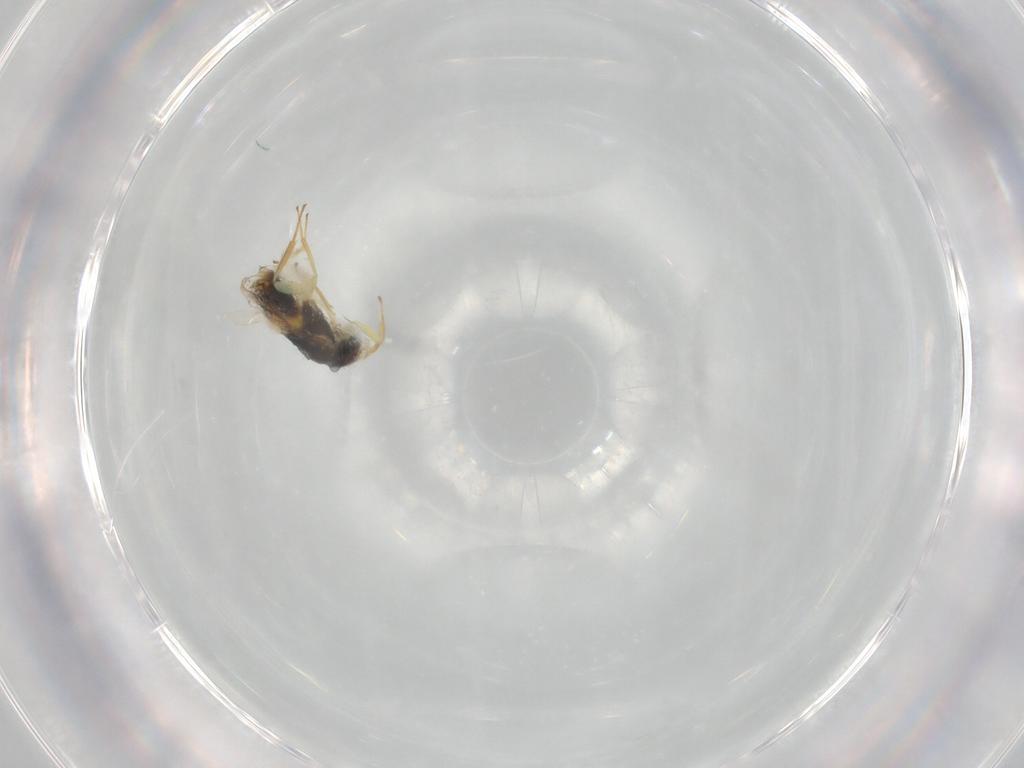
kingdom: Animalia
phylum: Arthropoda
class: Insecta
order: Hymenoptera
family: Aphelinidae
